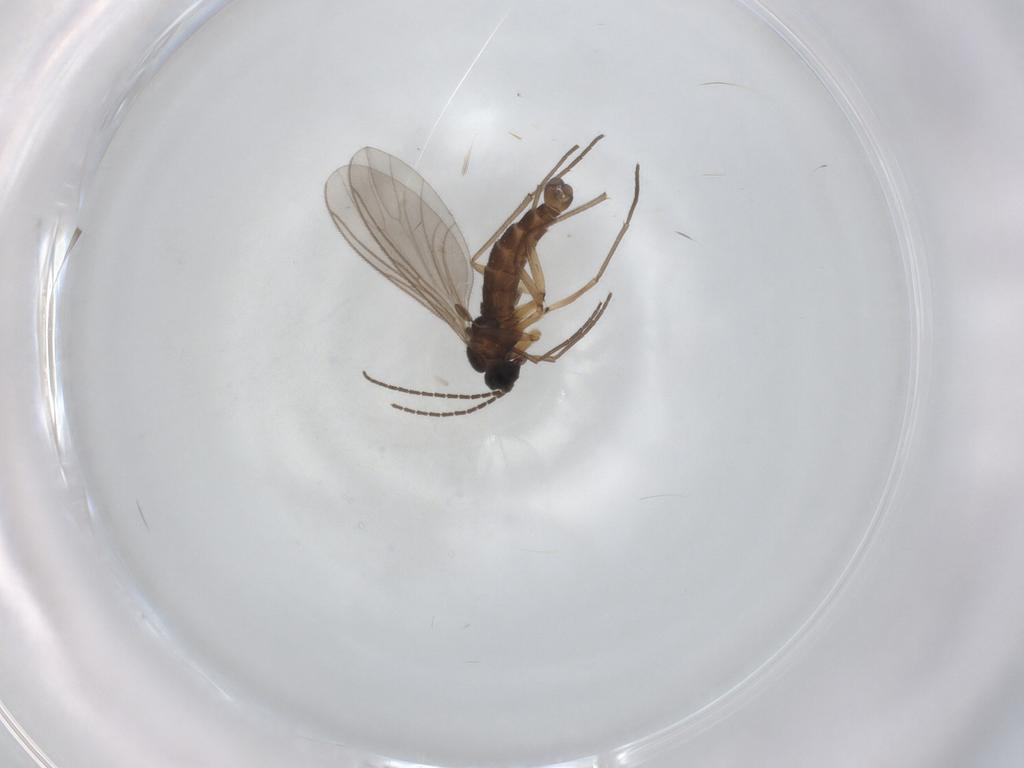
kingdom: Animalia
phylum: Arthropoda
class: Insecta
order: Diptera
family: Sciaridae
